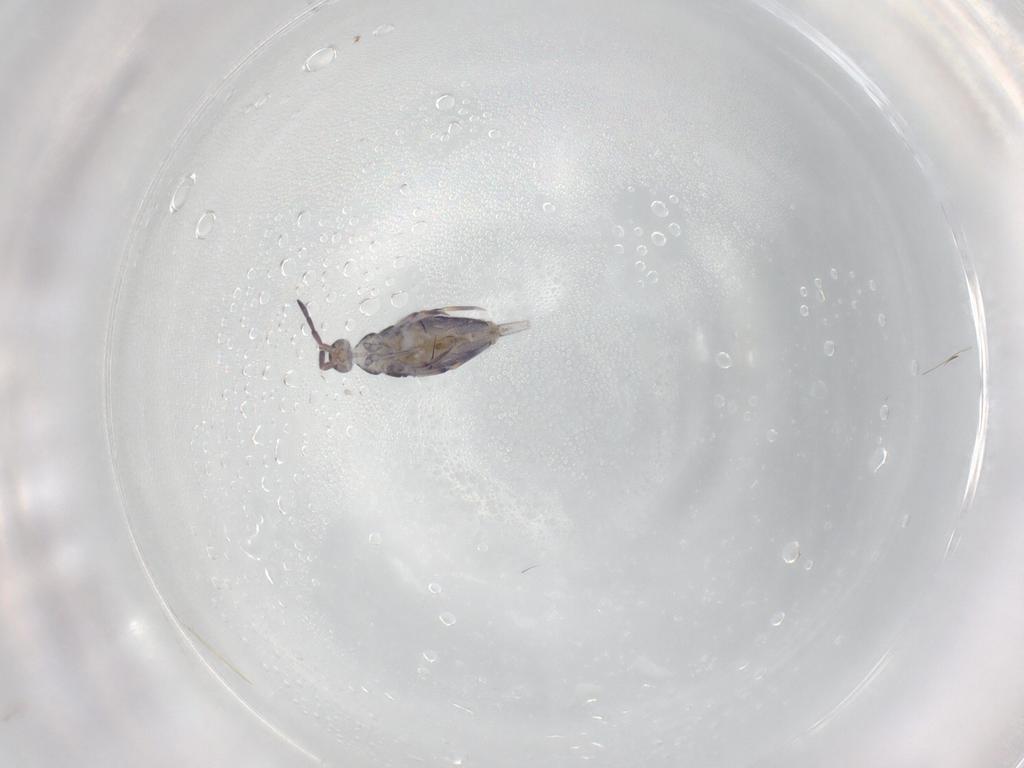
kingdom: Animalia
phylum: Arthropoda
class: Collembola
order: Entomobryomorpha
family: Entomobryidae
